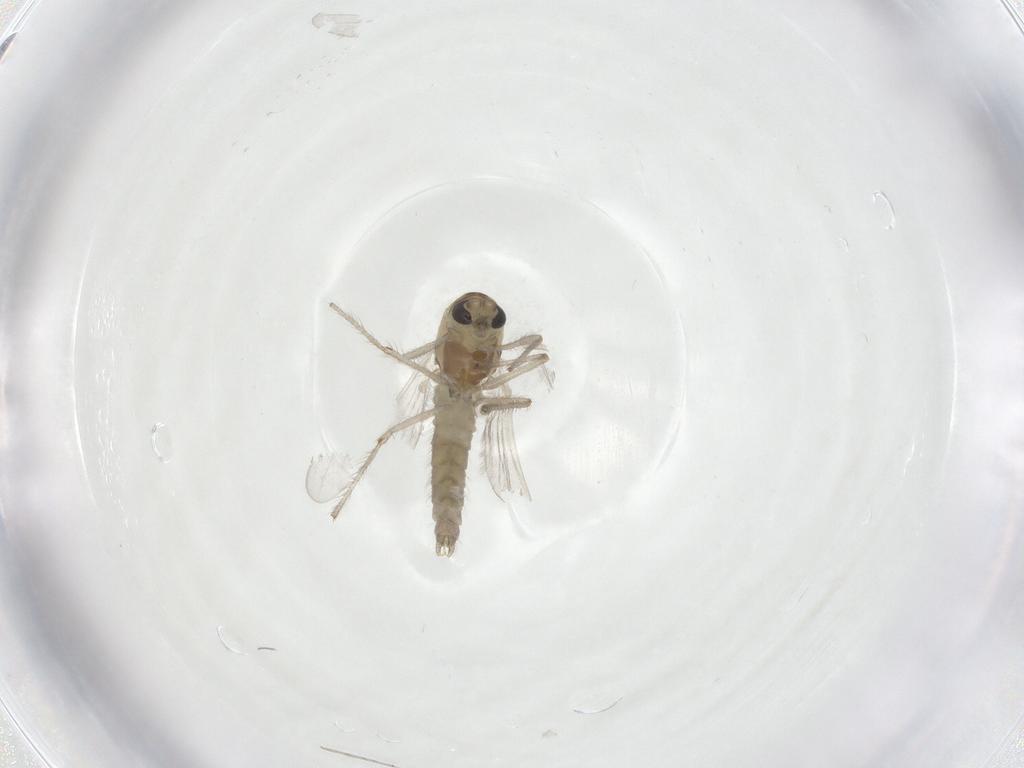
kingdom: Animalia
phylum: Arthropoda
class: Insecta
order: Diptera
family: Chironomidae
